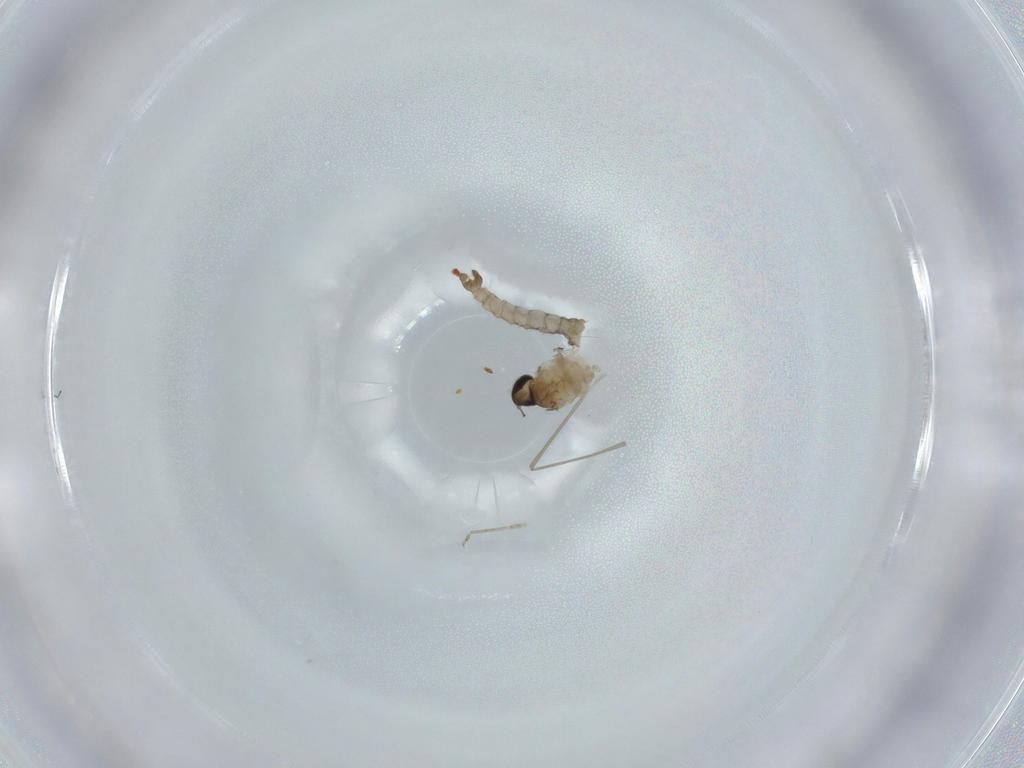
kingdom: Animalia
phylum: Arthropoda
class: Insecta
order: Diptera
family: Cecidomyiidae
